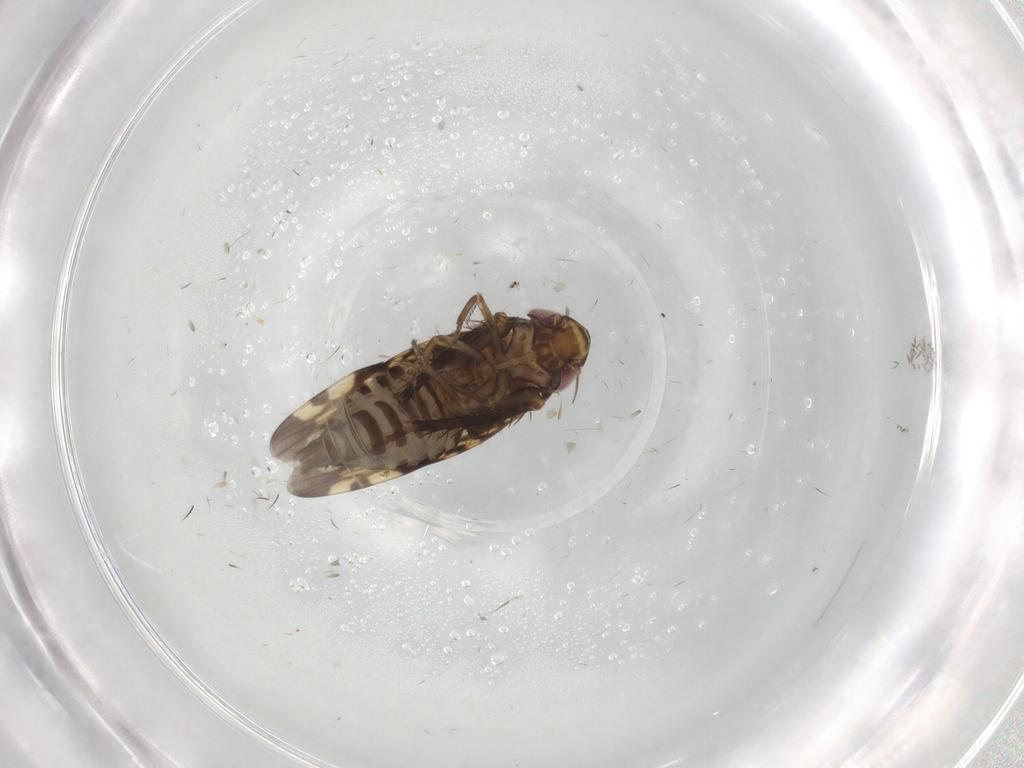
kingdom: Animalia
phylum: Arthropoda
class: Insecta
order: Hemiptera
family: Cicadellidae
